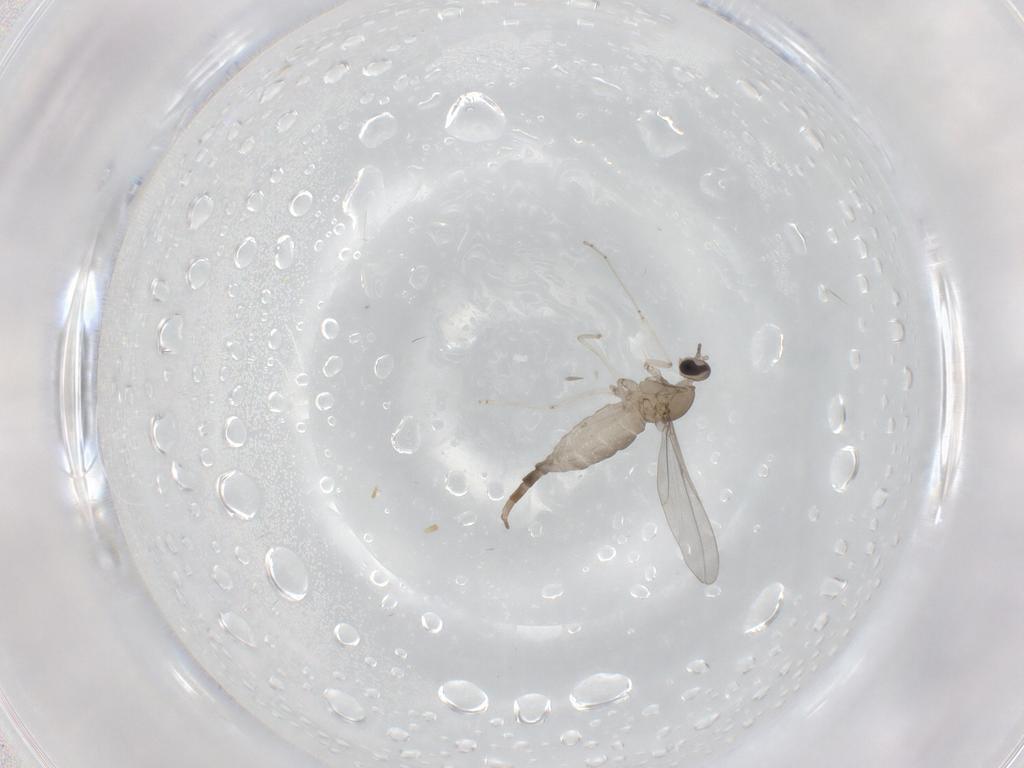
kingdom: Animalia
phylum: Arthropoda
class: Insecta
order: Diptera
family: Cecidomyiidae
